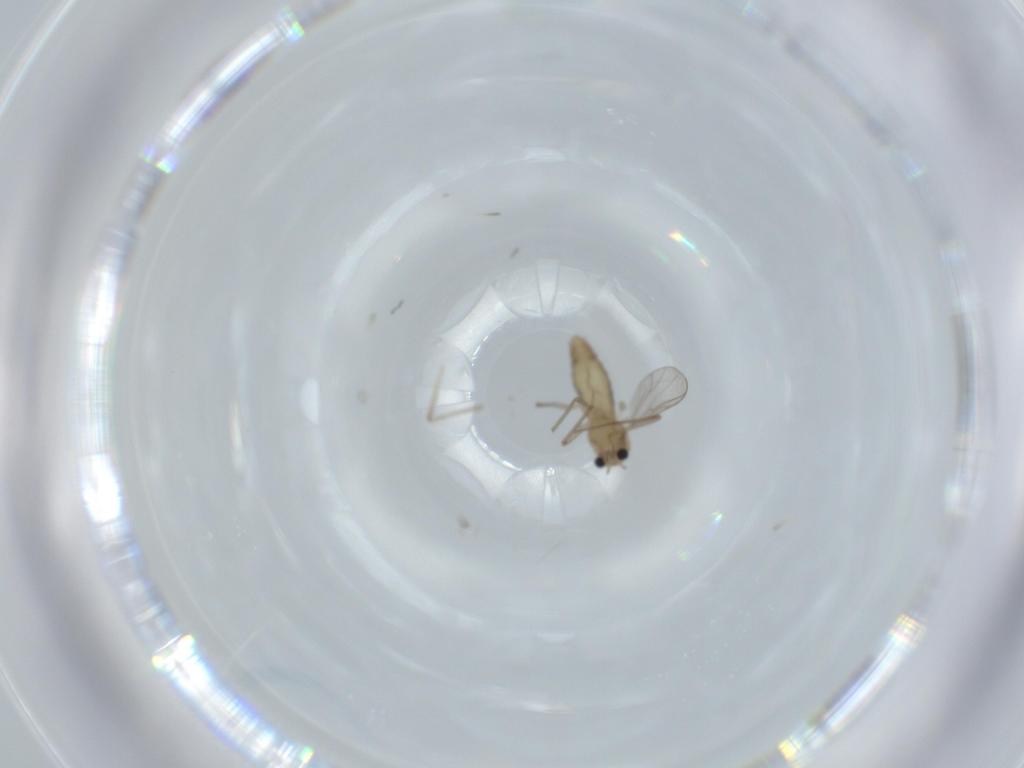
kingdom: Animalia
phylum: Arthropoda
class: Insecta
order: Diptera
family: Chironomidae
